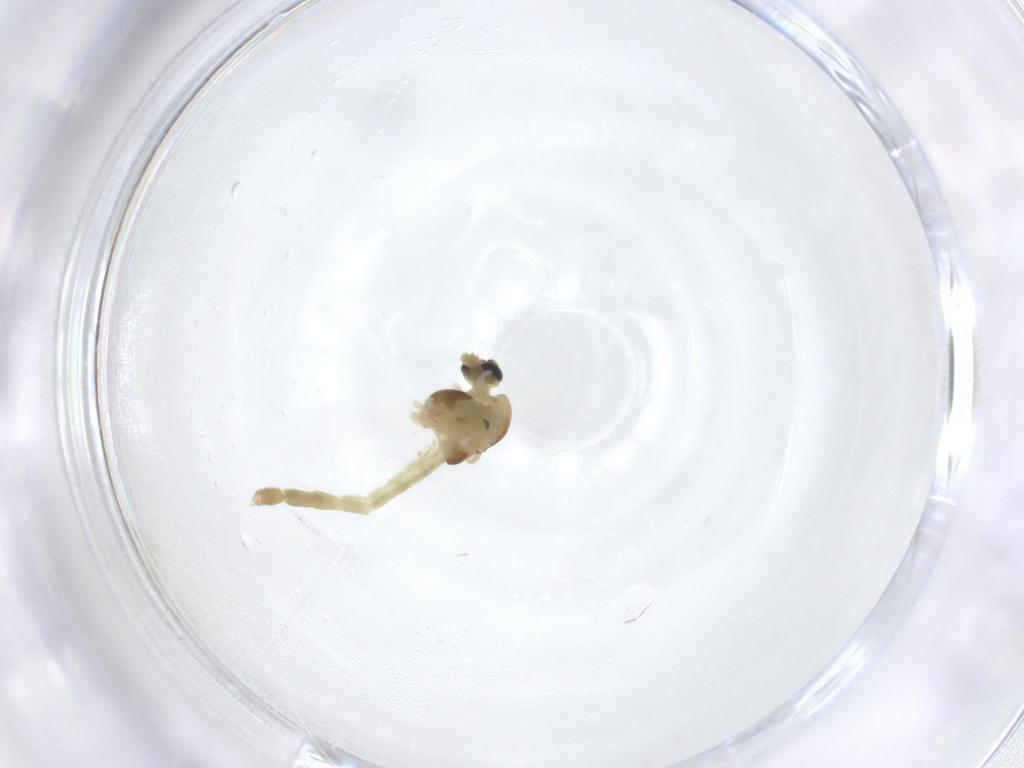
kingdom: Animalia
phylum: Arthropoda
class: Insecta
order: Diptera
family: Chironomidae
